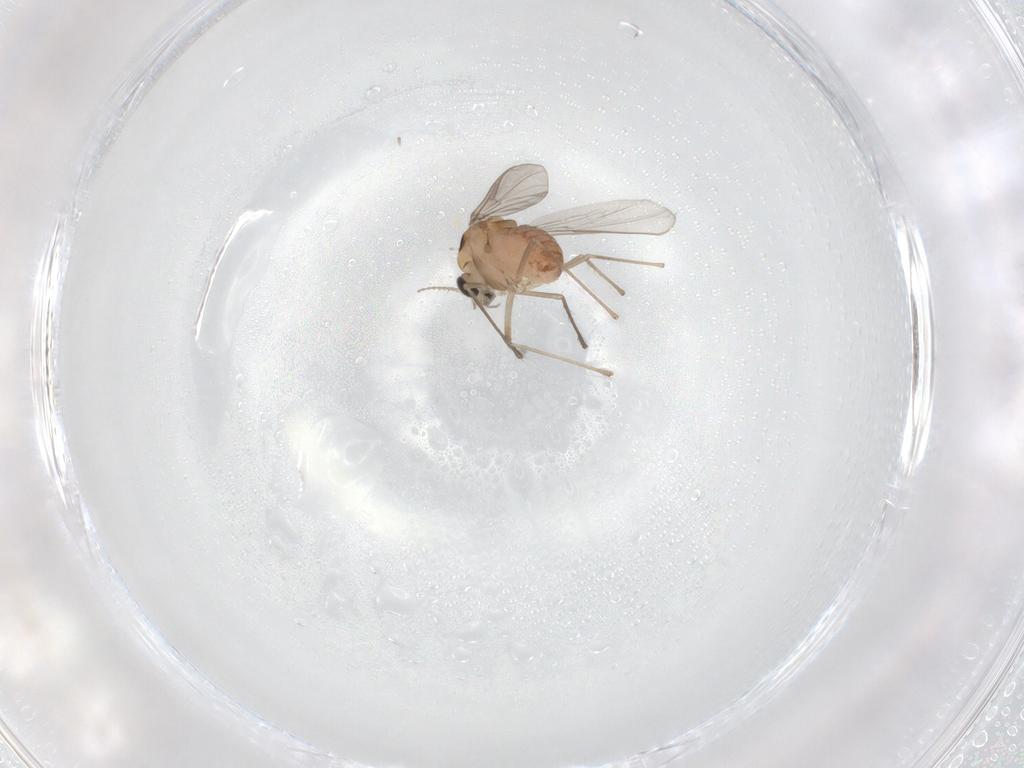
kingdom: Animalia
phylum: Arthropoda
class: Insecta
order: Diptera
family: Chironomidae
